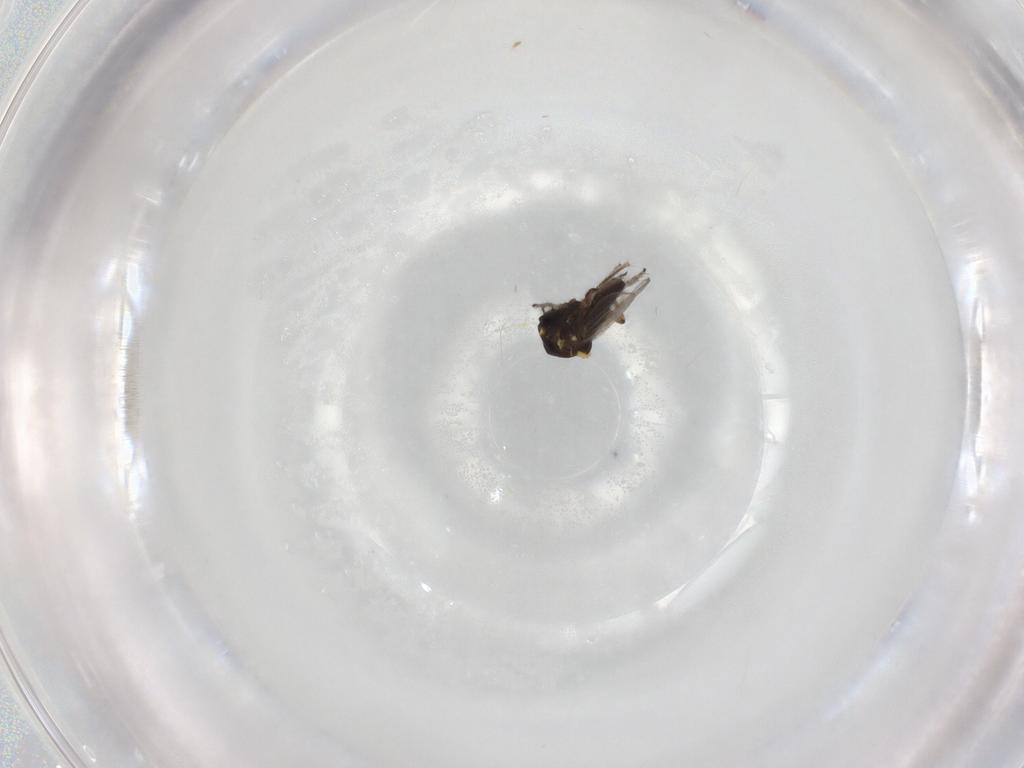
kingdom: Animalia
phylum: Arthropoda
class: Insecta
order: Diptera
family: Ceratopogonidae
